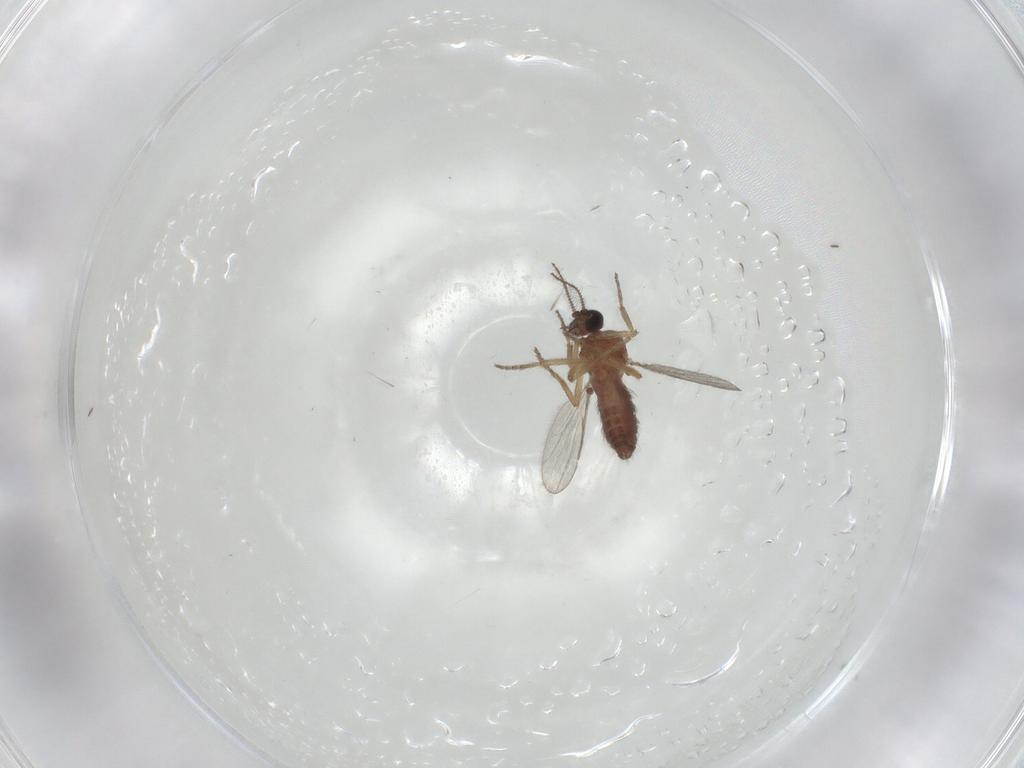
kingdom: Animalia
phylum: Arthropoda
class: Insecta
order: Diptera
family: Ceratopogonidae
